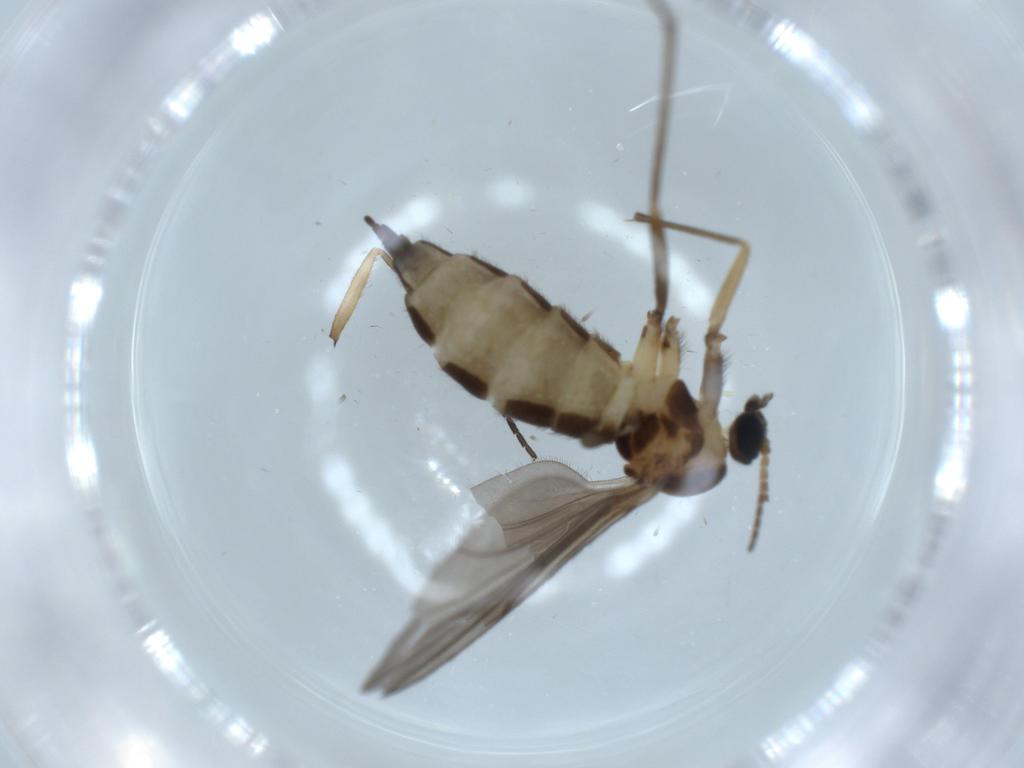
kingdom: Animalia
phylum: Arthropoda
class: Insecta
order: Diptera
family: Sciaridae
